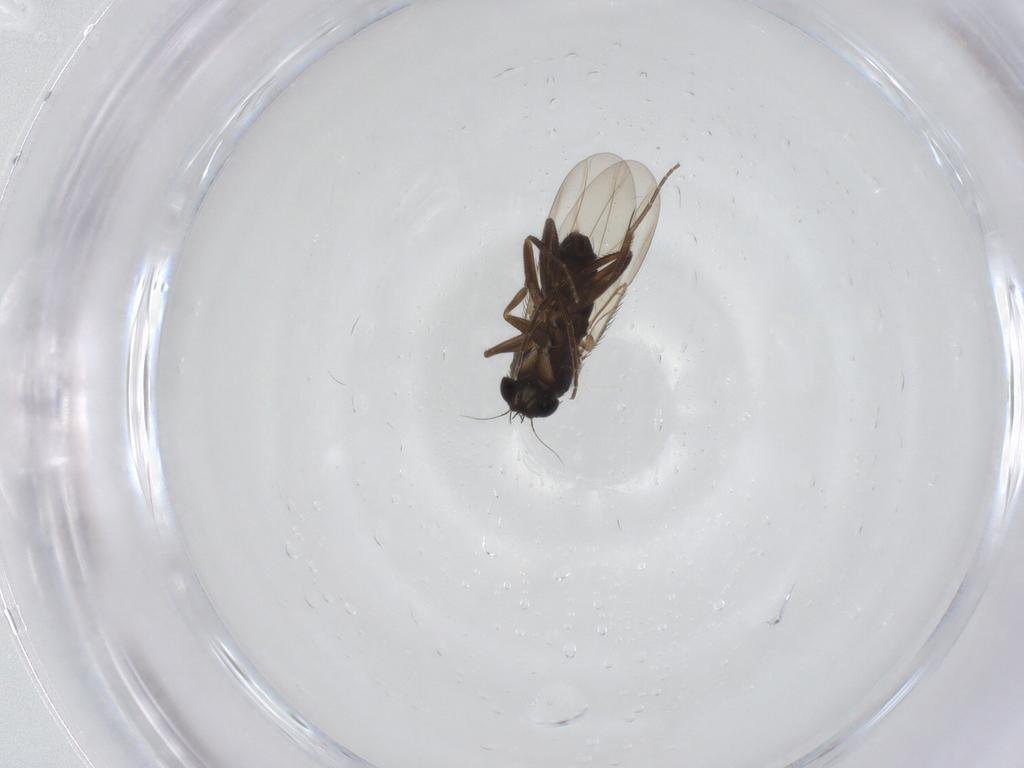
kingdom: Animalia
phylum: Arthropoda
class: Insecta
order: Diptera
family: Phoridae
